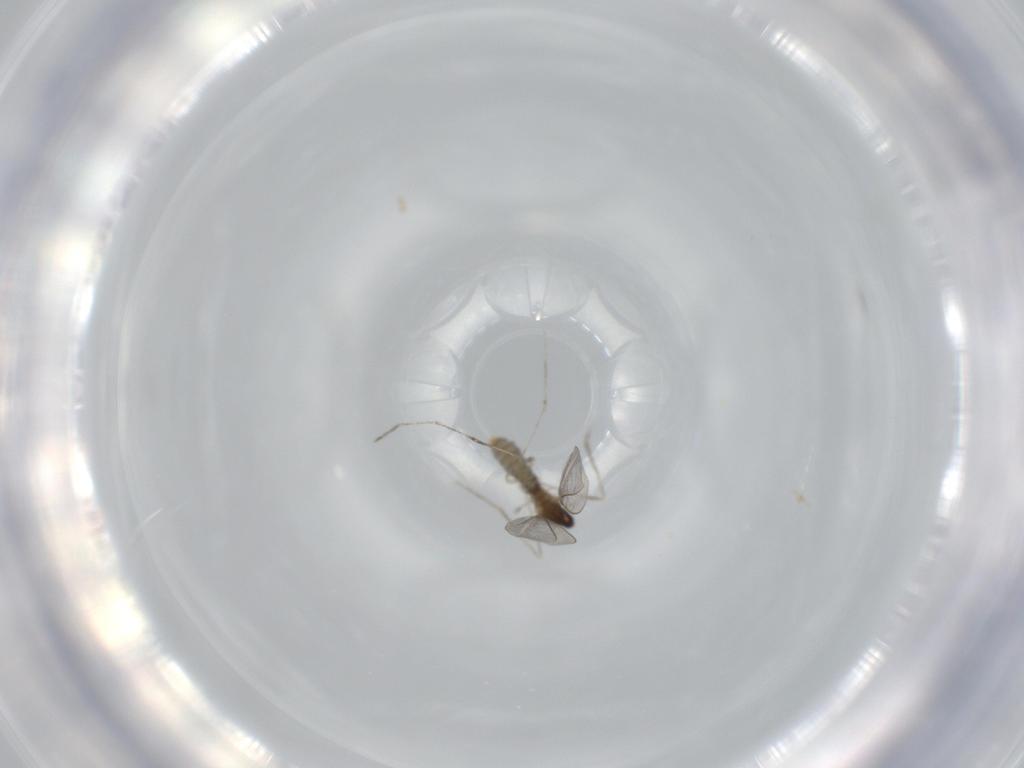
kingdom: Animalia
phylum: Arthropoda
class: Insecta
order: Diptera
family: Cecidomyiidae
